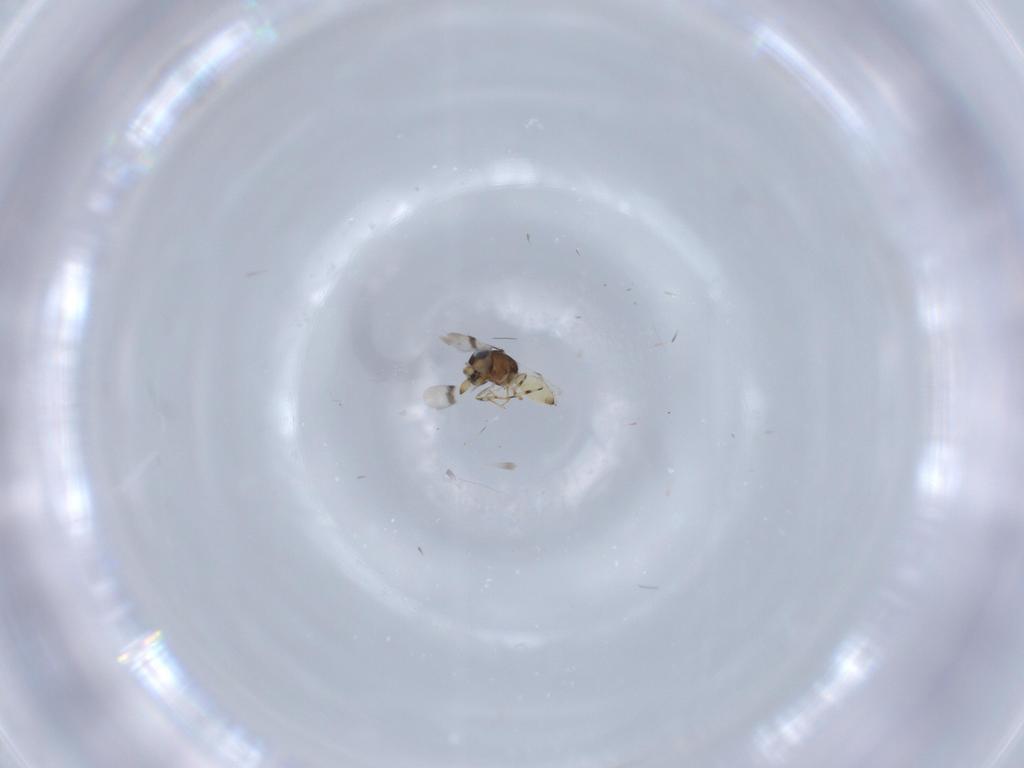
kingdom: Animalia
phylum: Arthropoda
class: Insecta
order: Hymenoptera
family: Scelionidae
